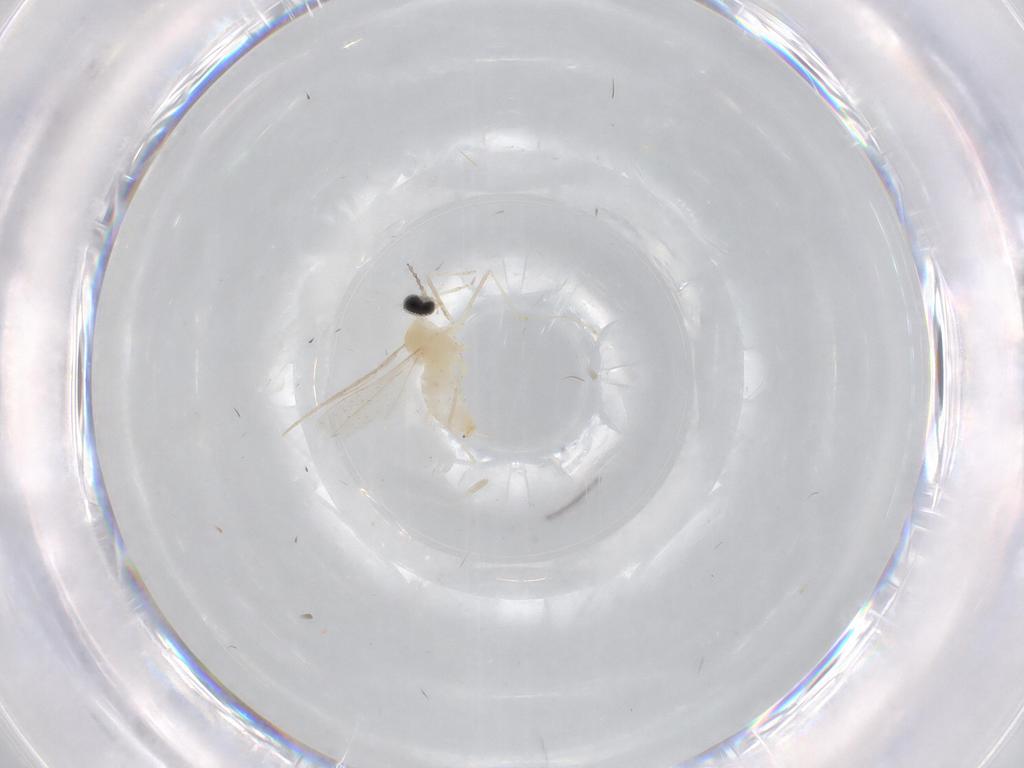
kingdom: Animalia
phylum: Arthropoda
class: Insecta
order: Diptera
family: Cecidomyiidae
